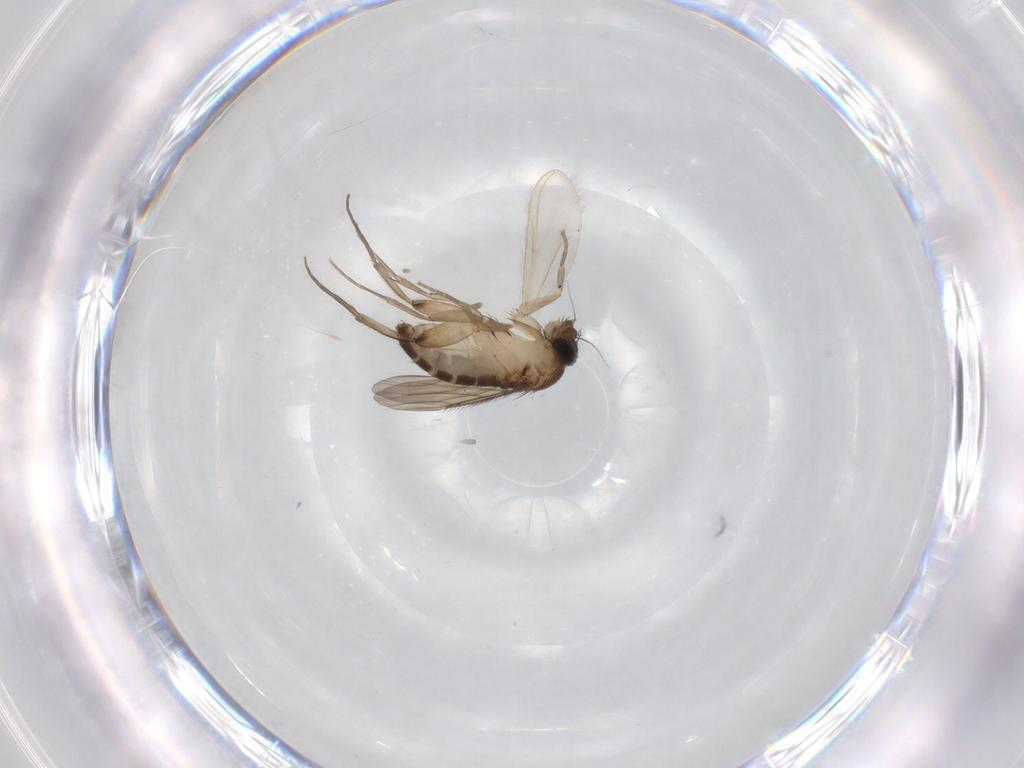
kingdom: Animalia
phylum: Arthropoda
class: Insecta
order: Diptera
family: Phoridae
